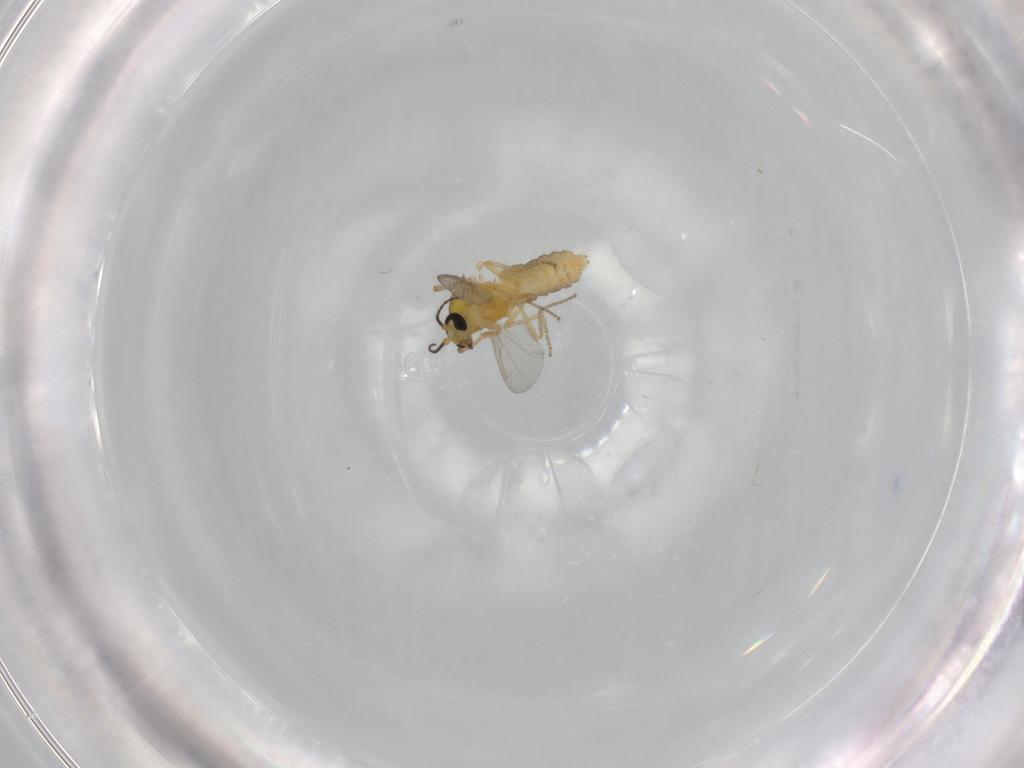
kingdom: Animalia
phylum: Arthropoda
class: Insecta
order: Diptera
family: Ceratopogonidae
